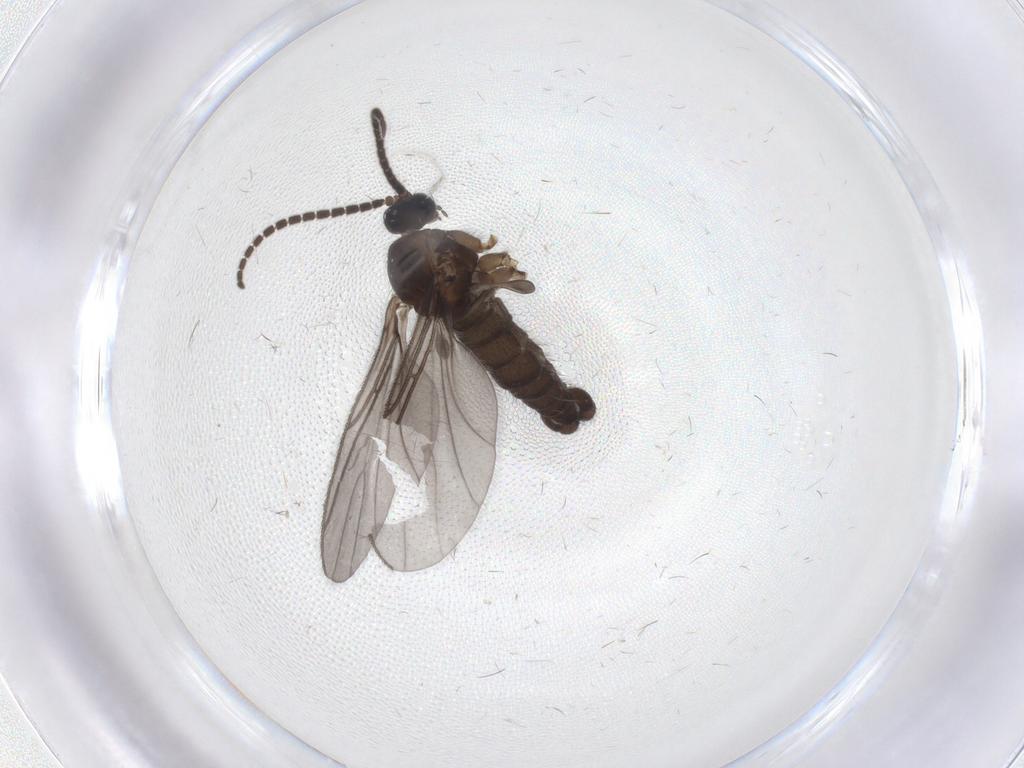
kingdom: Animalia
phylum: Arthropoda
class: Insecta
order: Diptera
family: Sciaridae
